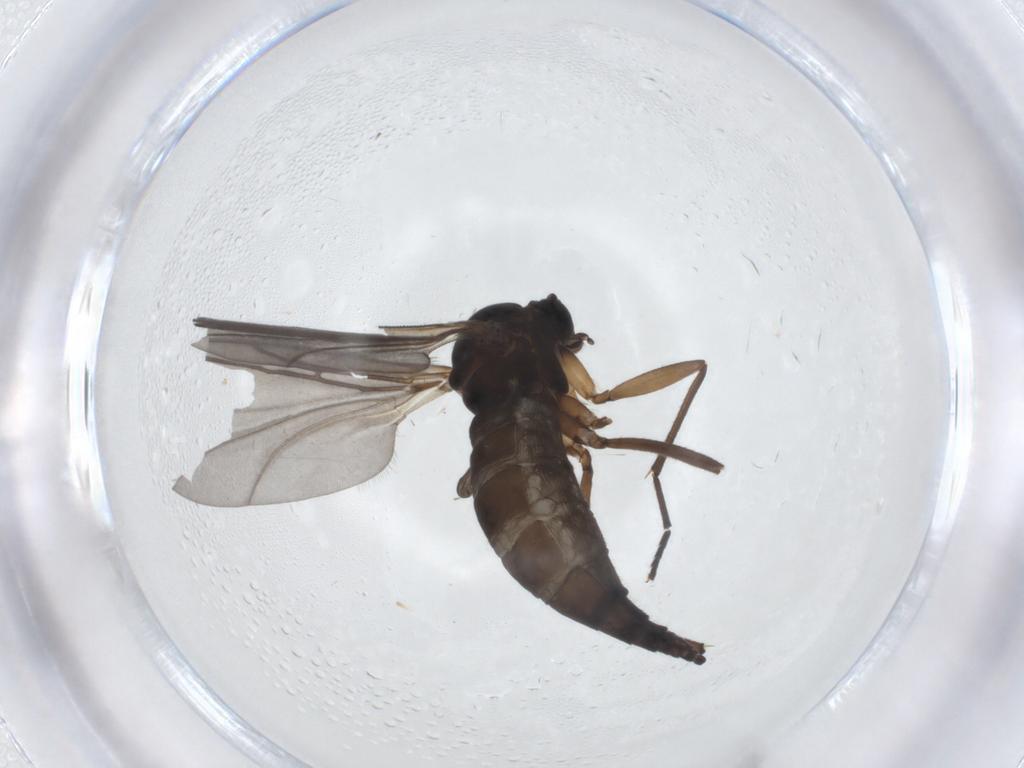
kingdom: Animalia
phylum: Arthropoda
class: Insecta
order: Diptera
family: Sciaridae
